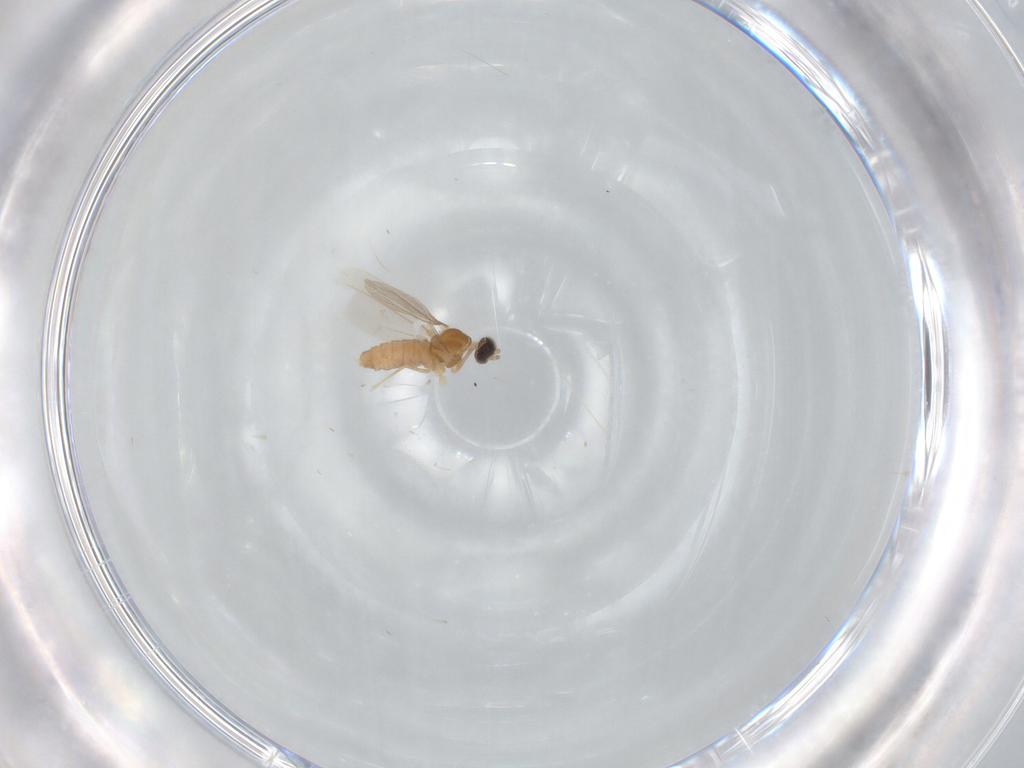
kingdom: Animalia
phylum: Arthropoda
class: Insecta
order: Diptera
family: Cecidomyiidae
